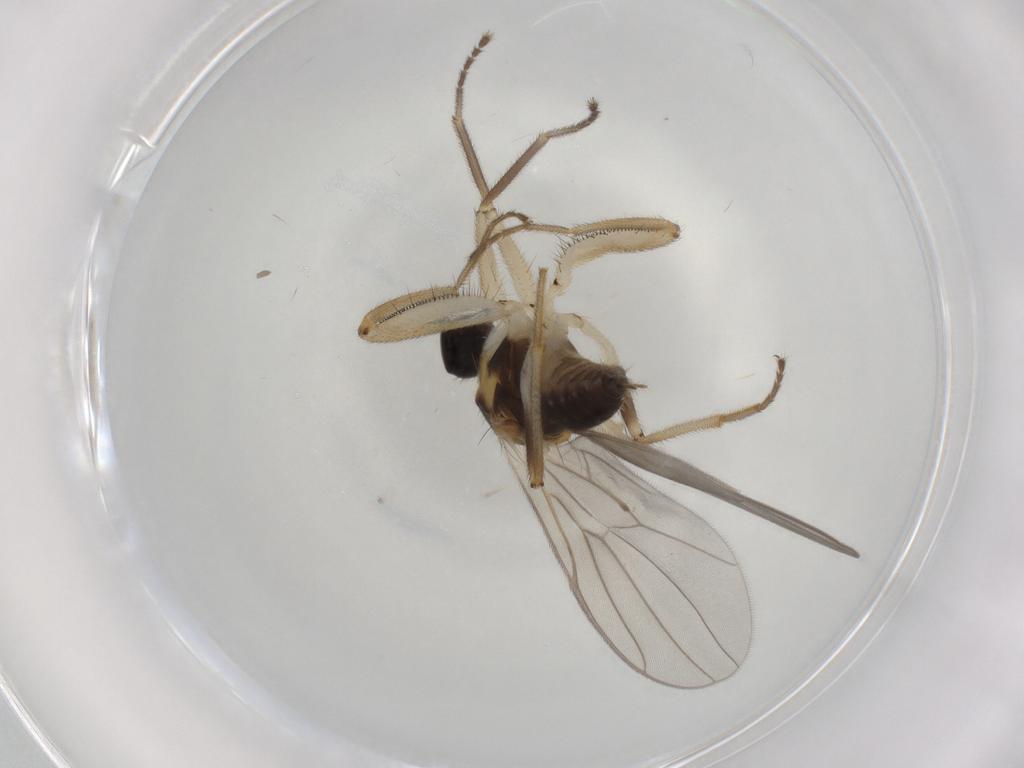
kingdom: Animalia
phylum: Arthropoda
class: Insecta
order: Diptera
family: Hybotidae
